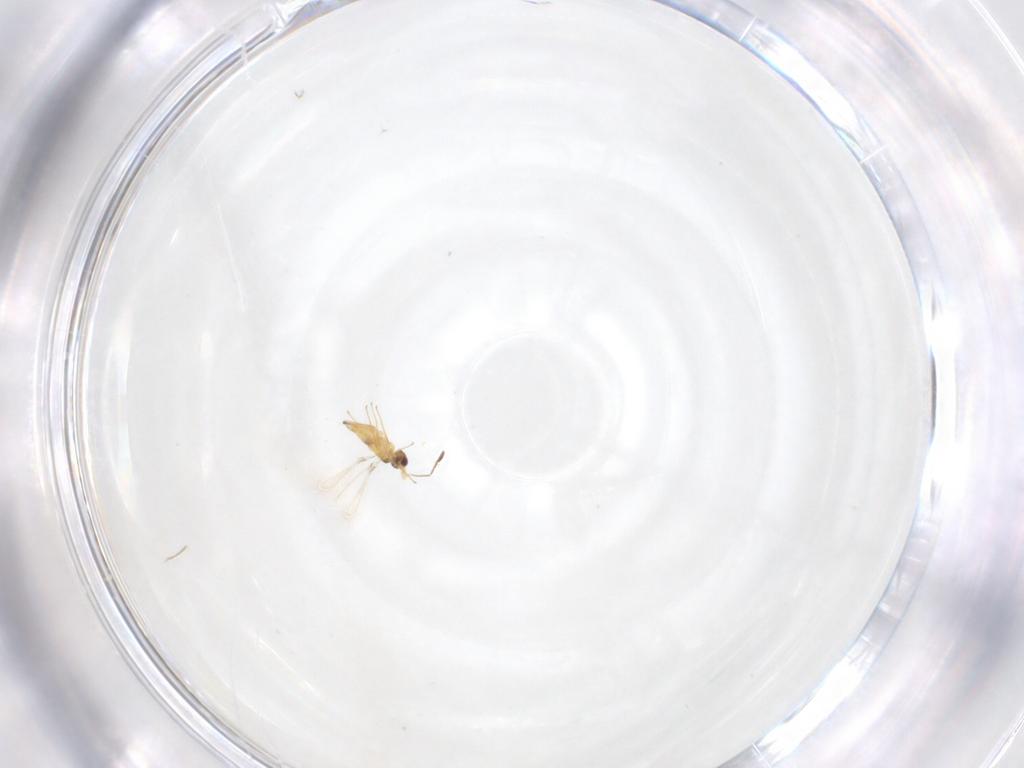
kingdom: Animalia
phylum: Arthropoda
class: Insecta
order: Hymenoptera
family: Mymaridae
